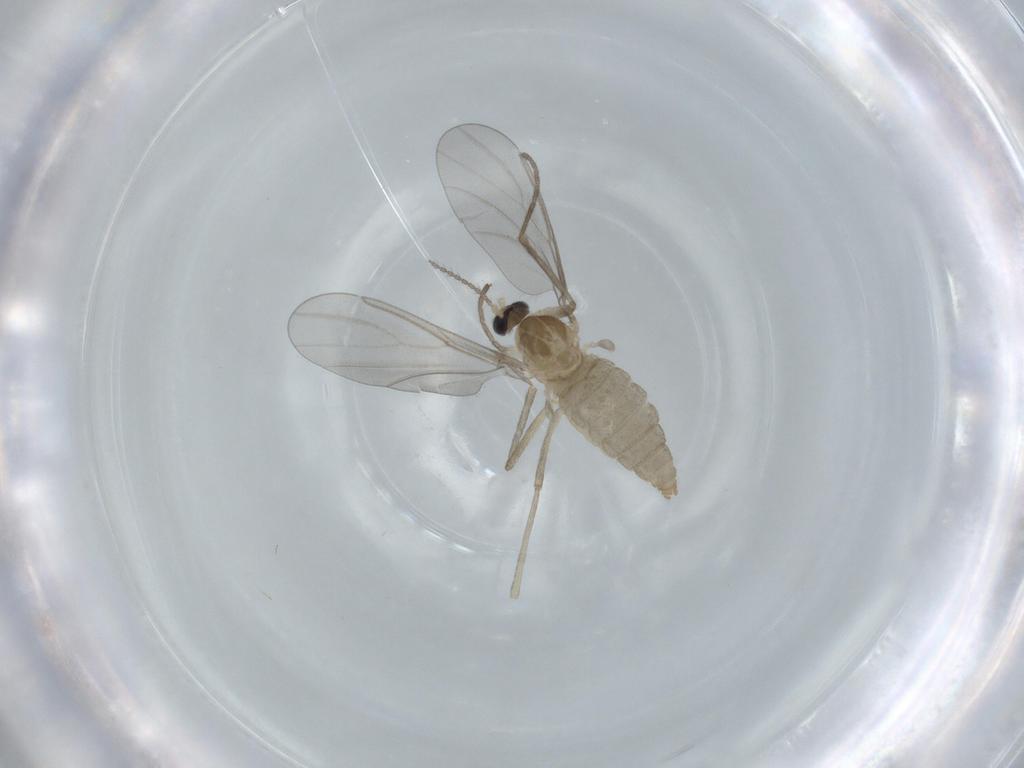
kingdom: Animalia
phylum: Arthropoda
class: Insecta
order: Diptera
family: Cecidomyiidae
